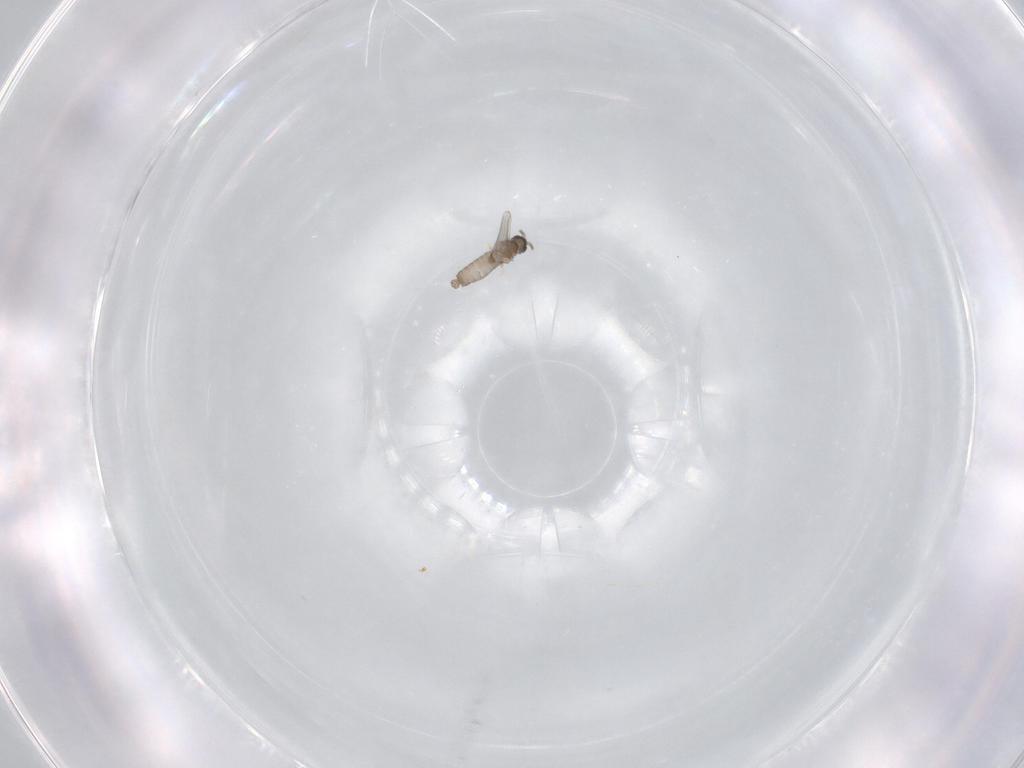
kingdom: Animalia
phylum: Arthropoda
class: Insecta
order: Diptera
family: Cecidomyiidae
